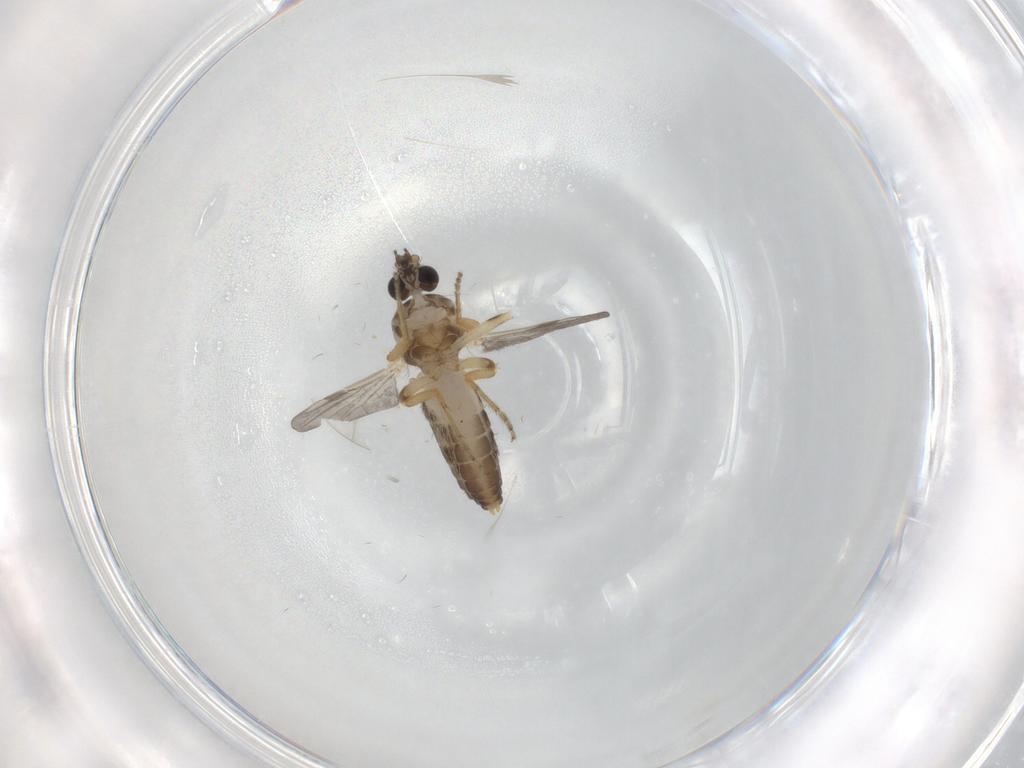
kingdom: Animalia
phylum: Arthropoda
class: Insecta
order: Diptera
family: Ceratopogonidae
